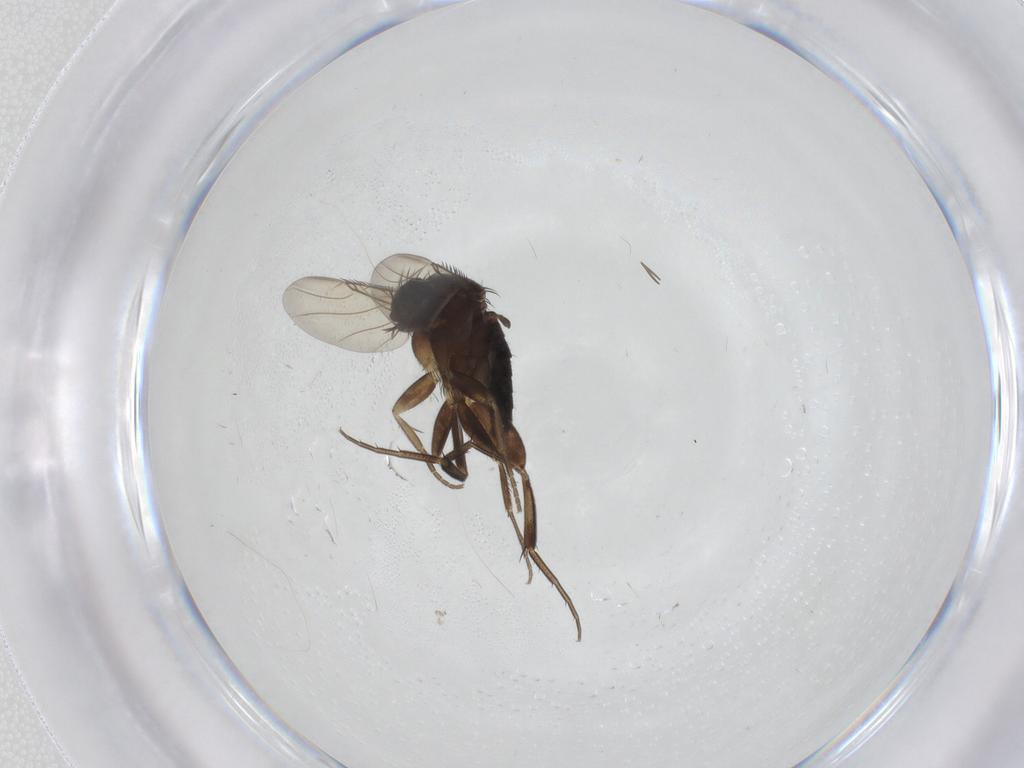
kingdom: Animalia
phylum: Arthropoda
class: Insecta
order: Diptera
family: Phoridae
